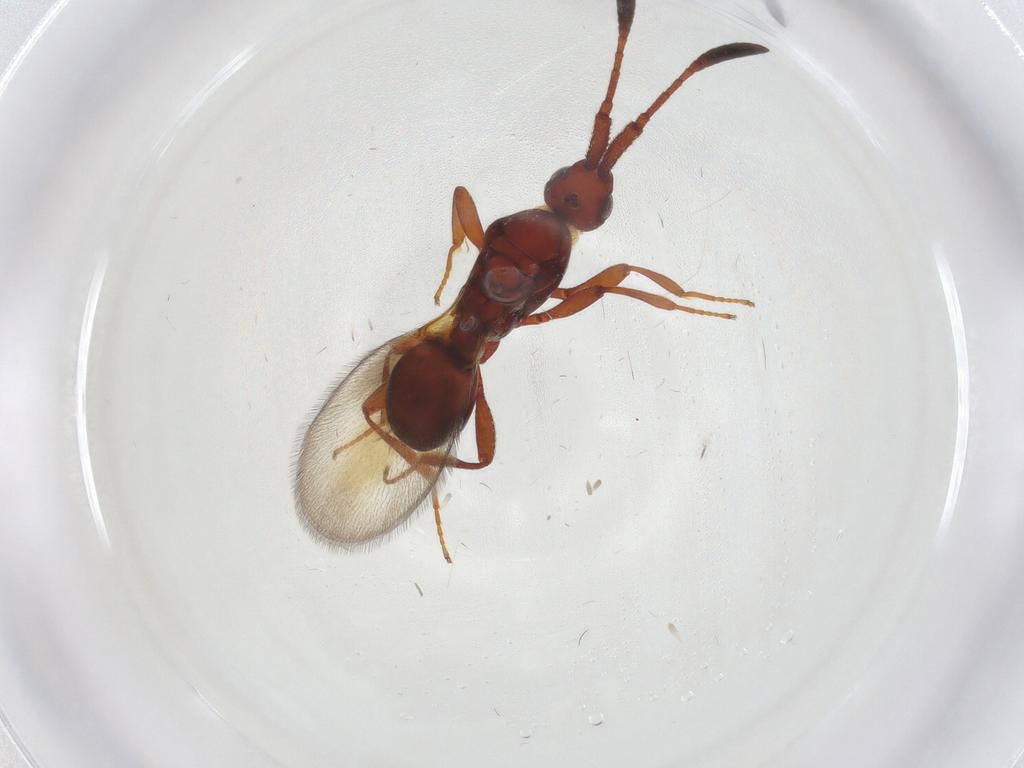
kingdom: Animalia
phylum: Arthropoda
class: Insecta
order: Hymenoptera
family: Diapriidae
